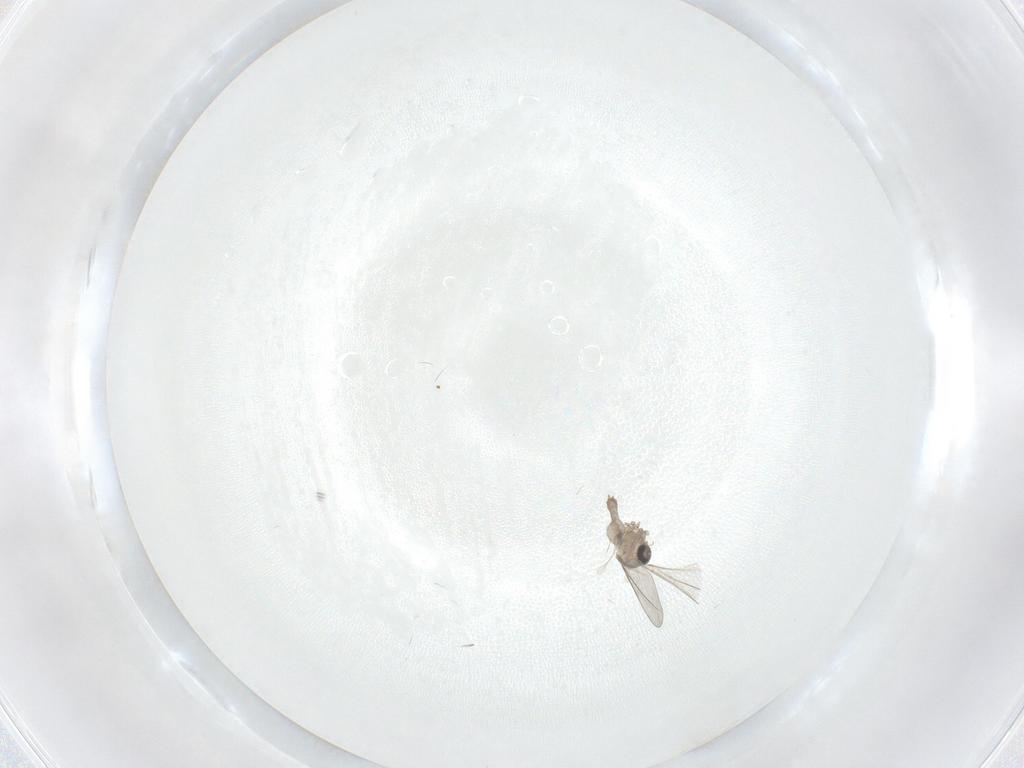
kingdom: Animalia
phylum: Arthropoda
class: Insecta
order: Diptera
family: Cecidomyiidae
